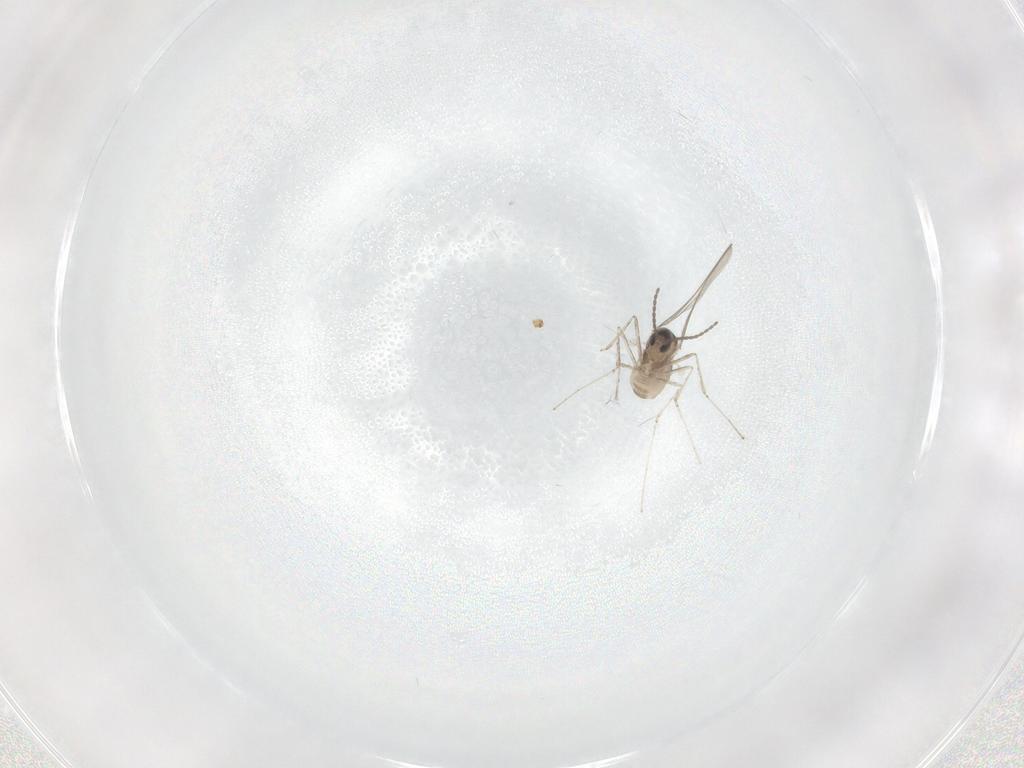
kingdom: Animalia
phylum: Arthropoda
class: Insecta
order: Diptera
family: Cecidomyiidae
